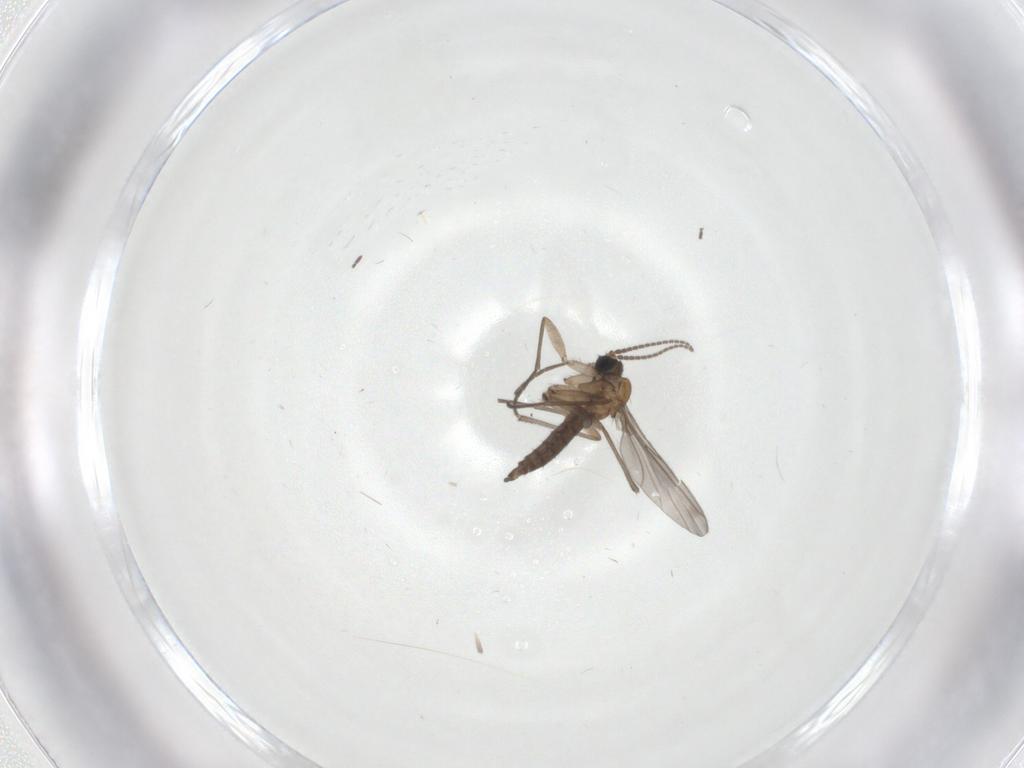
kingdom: Animalia
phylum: Arthropoda
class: Insecta
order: Diptera
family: Sciaridae
